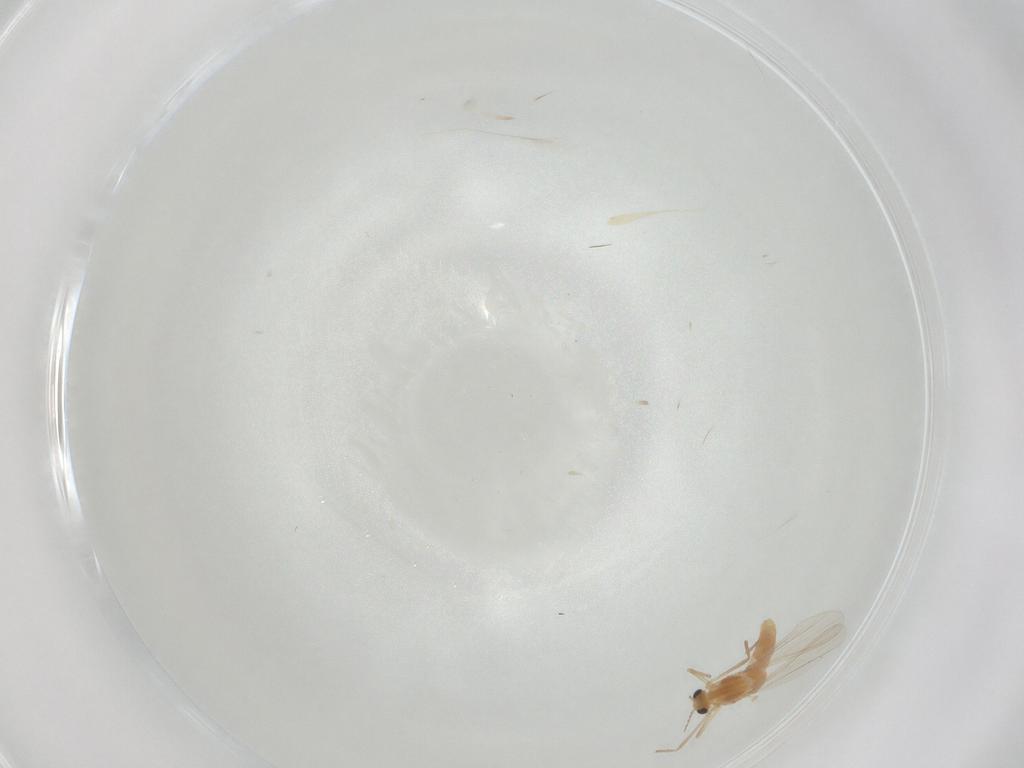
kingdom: Animalia
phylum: Arthropoda
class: Insecta
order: Diptera
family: Chironomidae
